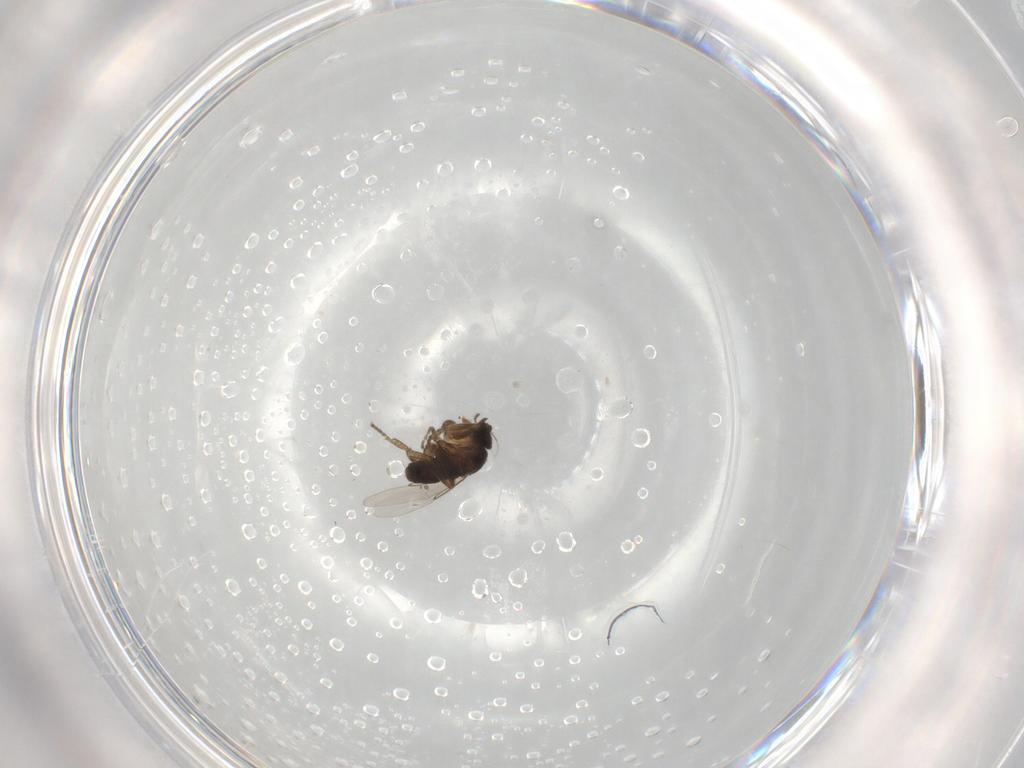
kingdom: Animalia
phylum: Arthropoda
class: Insecta
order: Diptera
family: Phoridae
